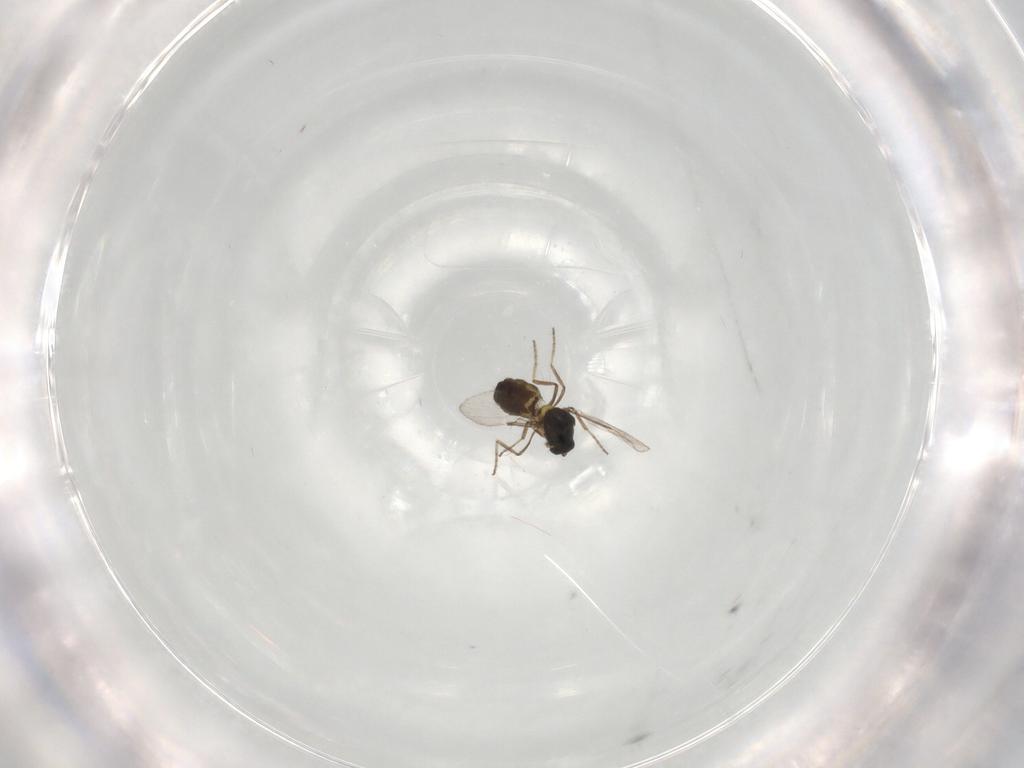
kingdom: Animalia
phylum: Arthropoda
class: Insecta
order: Diptera
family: Ceratopogonidae
